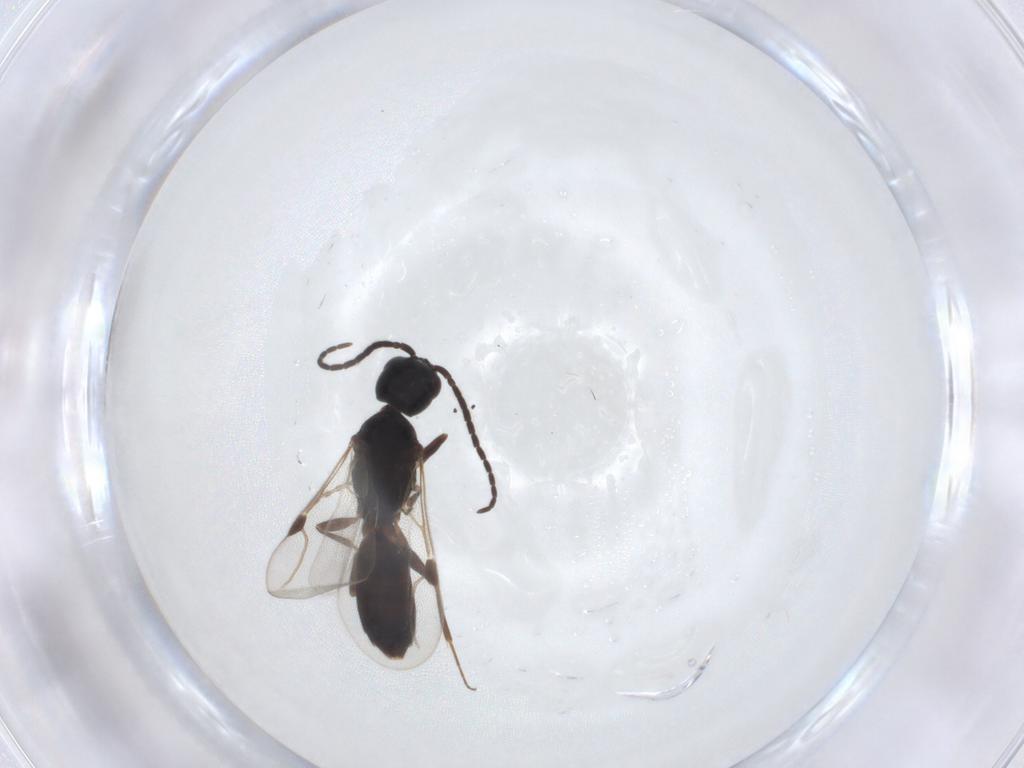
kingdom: Animalia
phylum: Arthropoda
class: Insecta
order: Hymenoptera
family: Bethylidae
